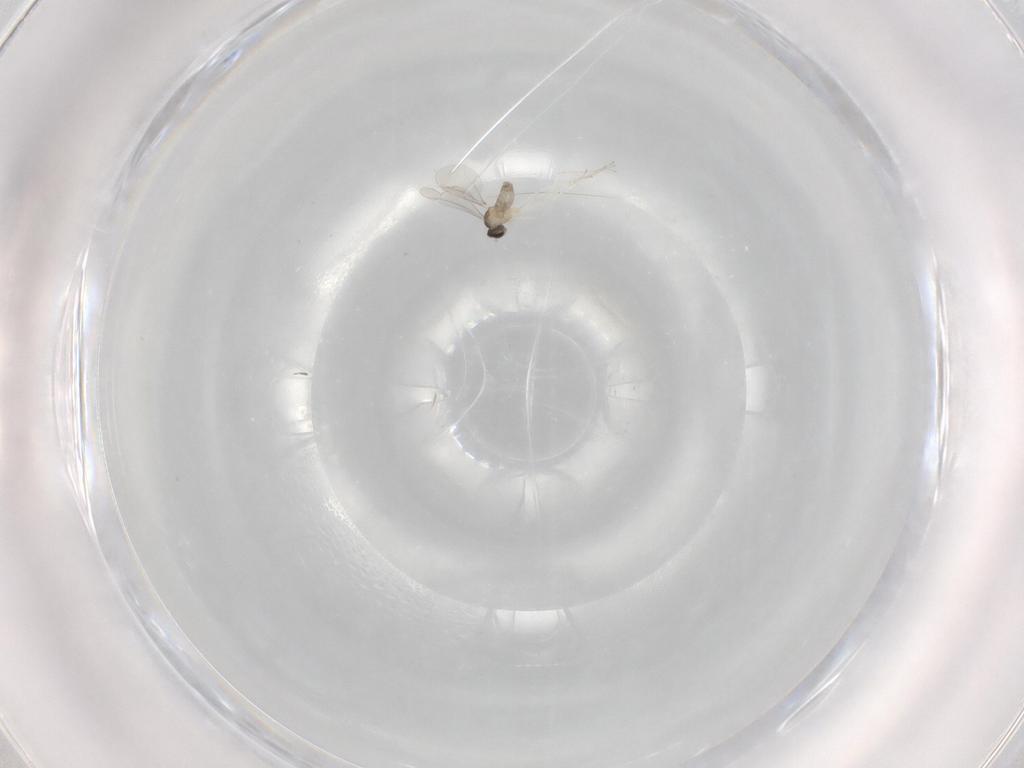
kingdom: Animalia
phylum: Arthropoda
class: Insecta
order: Diptera
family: Cecidomyiidae
